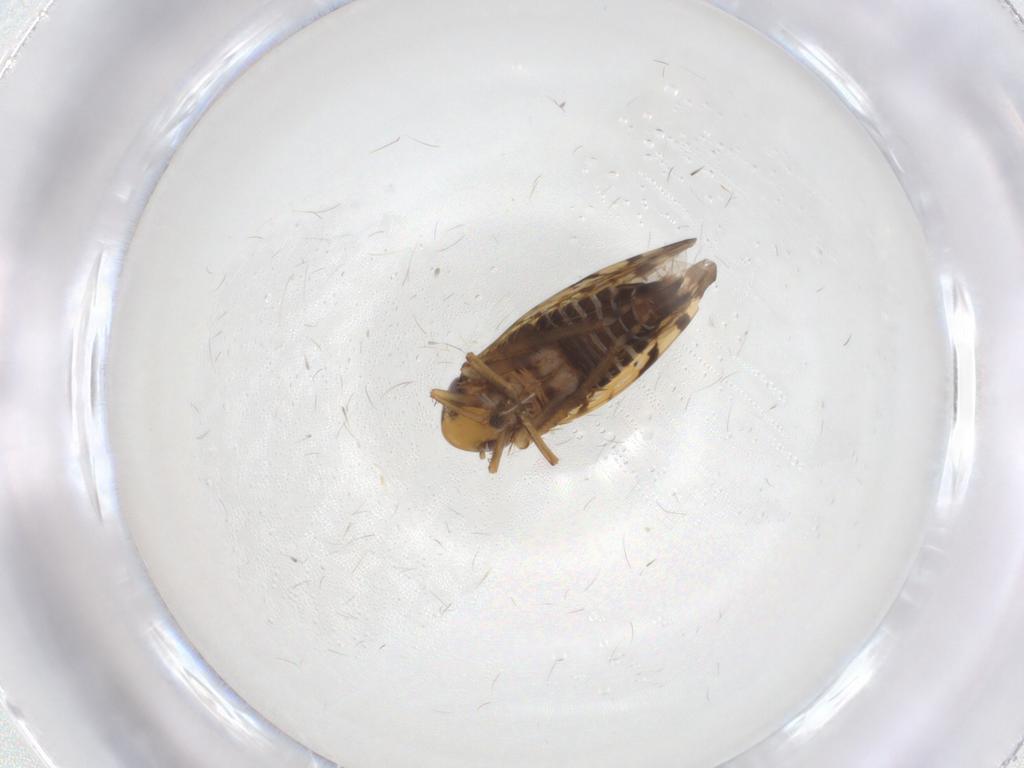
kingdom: Animalia
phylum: Arthropoda
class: Insecta
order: Hemiptera
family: Cicadellidae
